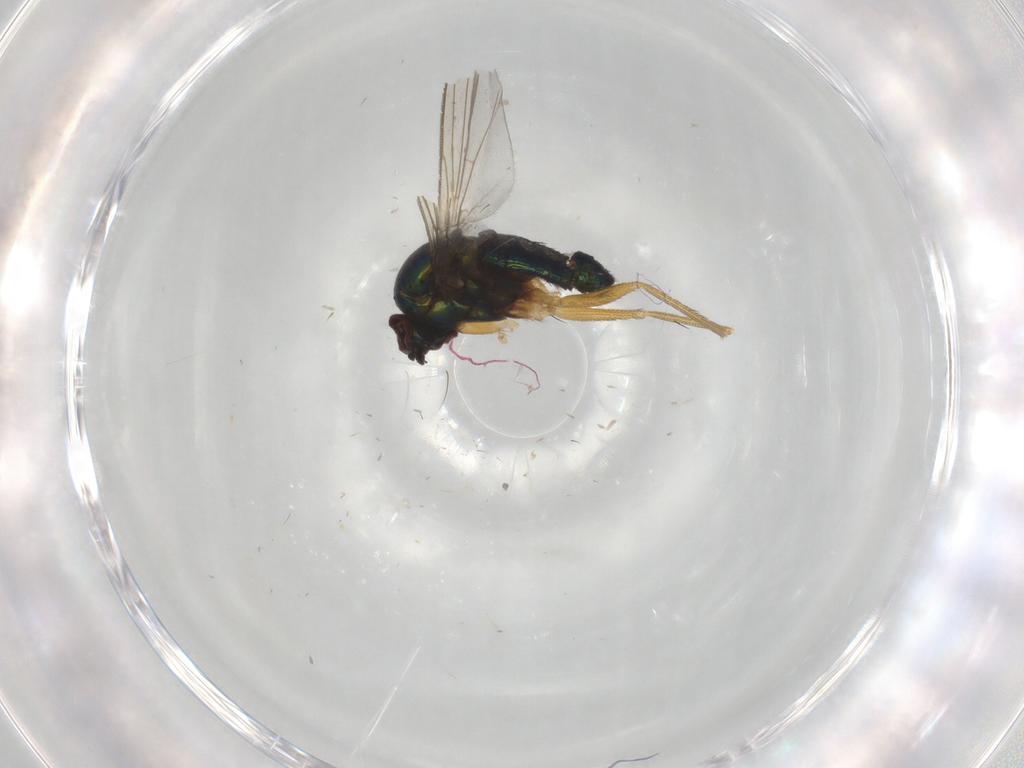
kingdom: Animalia
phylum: Arthropoda
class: Insecta
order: Diptera
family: Dolichopodidae
